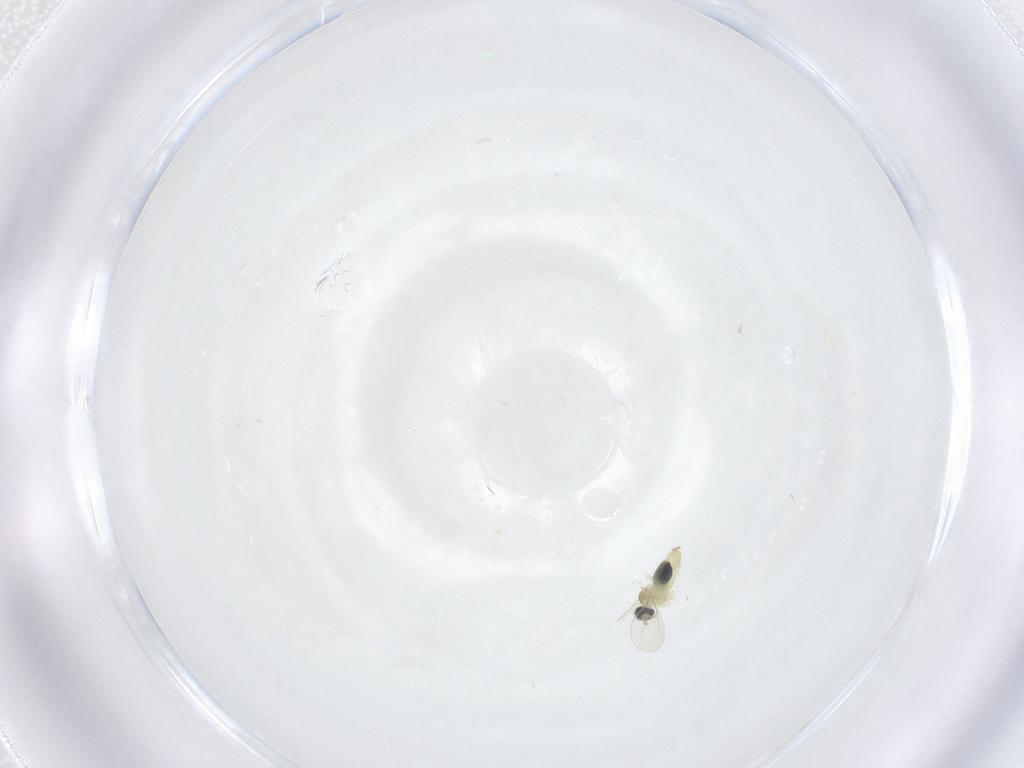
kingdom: Animalia
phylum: Arthropoda
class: Insecta
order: Diptera
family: Cecidomyiidae
